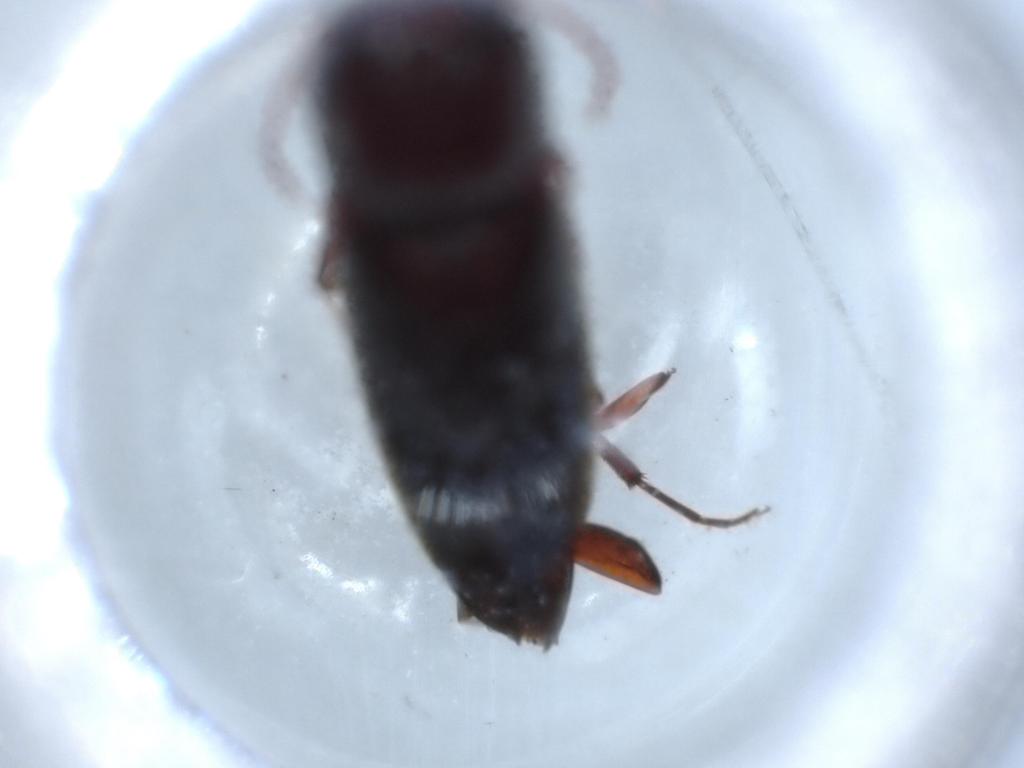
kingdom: Animalia
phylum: Arthropoda
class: Insecta
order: Coleoptera
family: Eucnemidae
